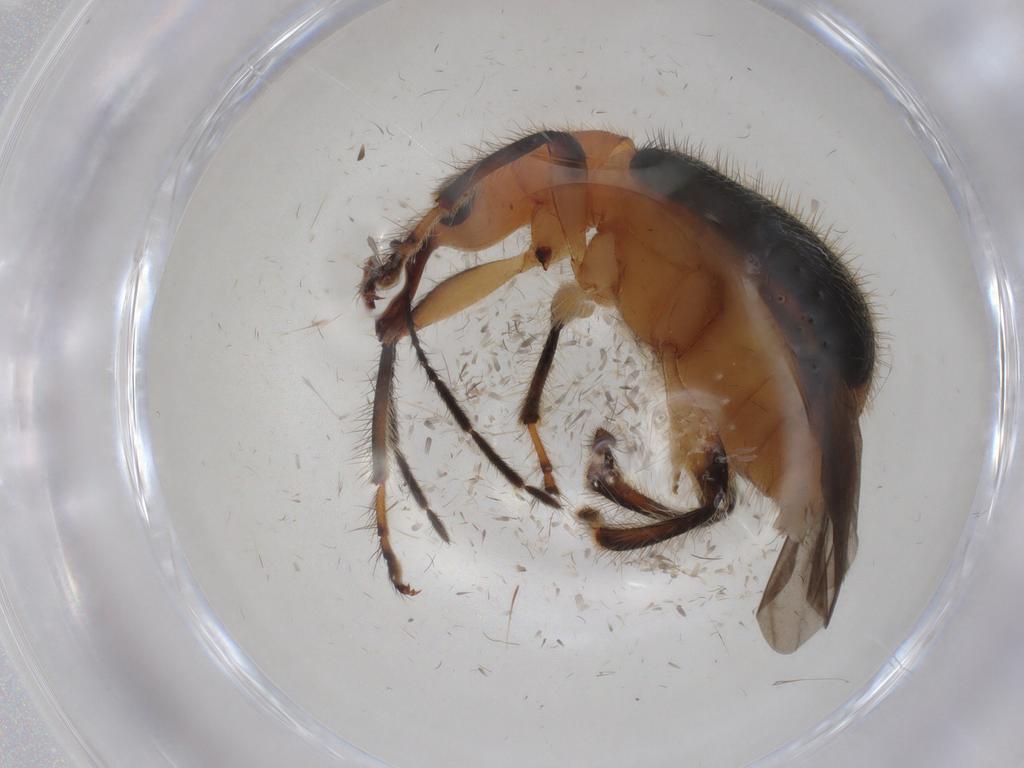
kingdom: Animalia
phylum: Arthropoda
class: Insecta
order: Coleoptera
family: Attelabidae
